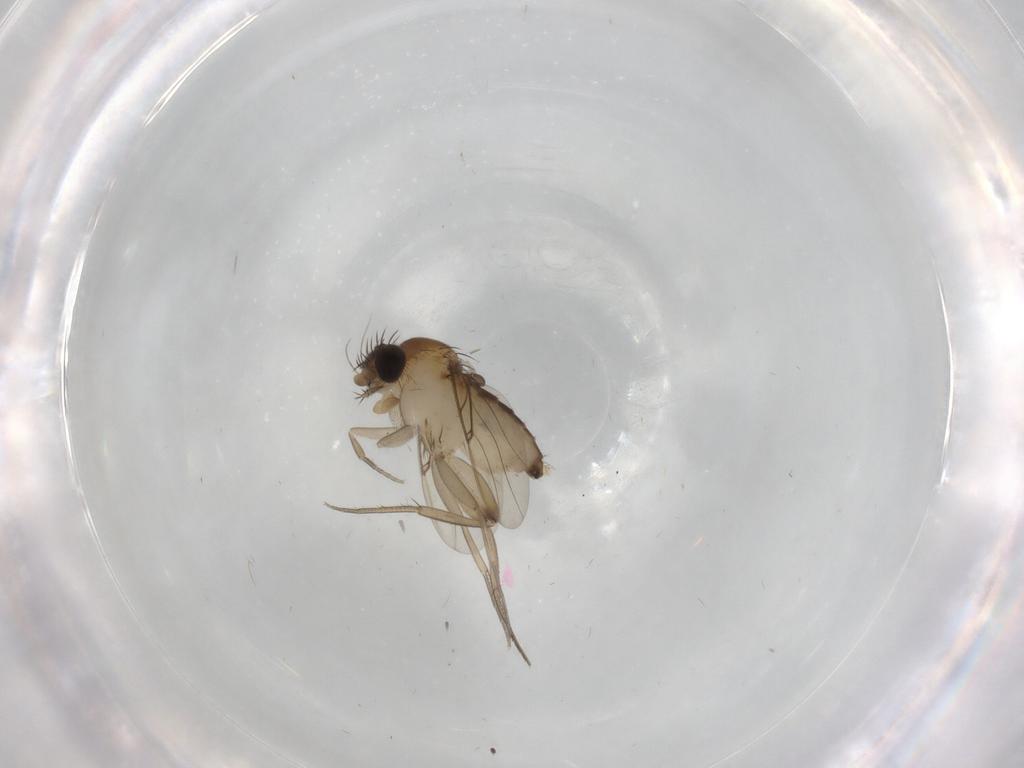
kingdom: Animalia
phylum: Arthropoda
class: Insecta
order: Diptera
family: Phoridae
